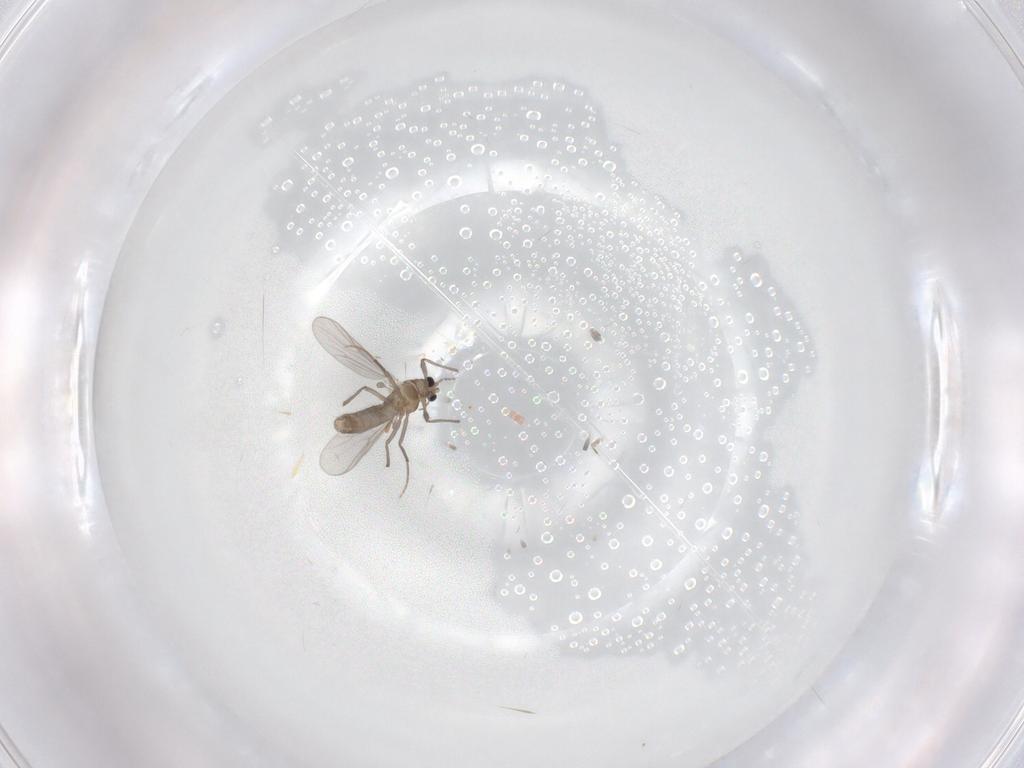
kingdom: Animalia
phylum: Arthropoda
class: Insecta
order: Diptera
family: Chironomidae
